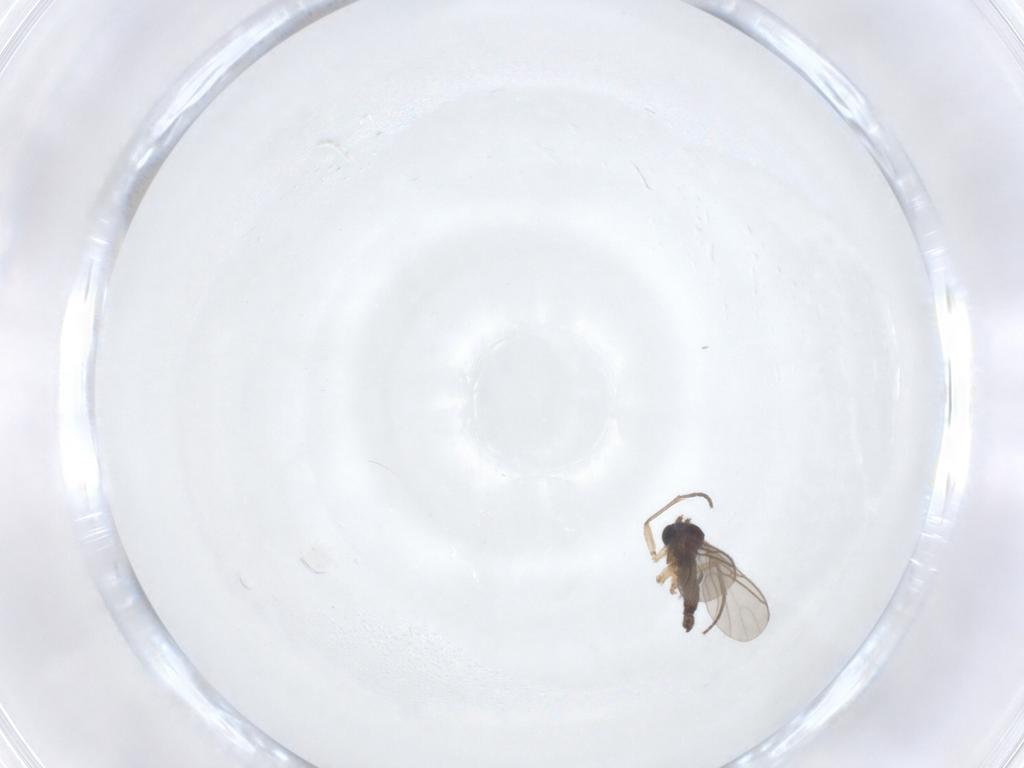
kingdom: Animalia
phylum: Arthropoda
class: Insecta
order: Diptera
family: Sciaridae
